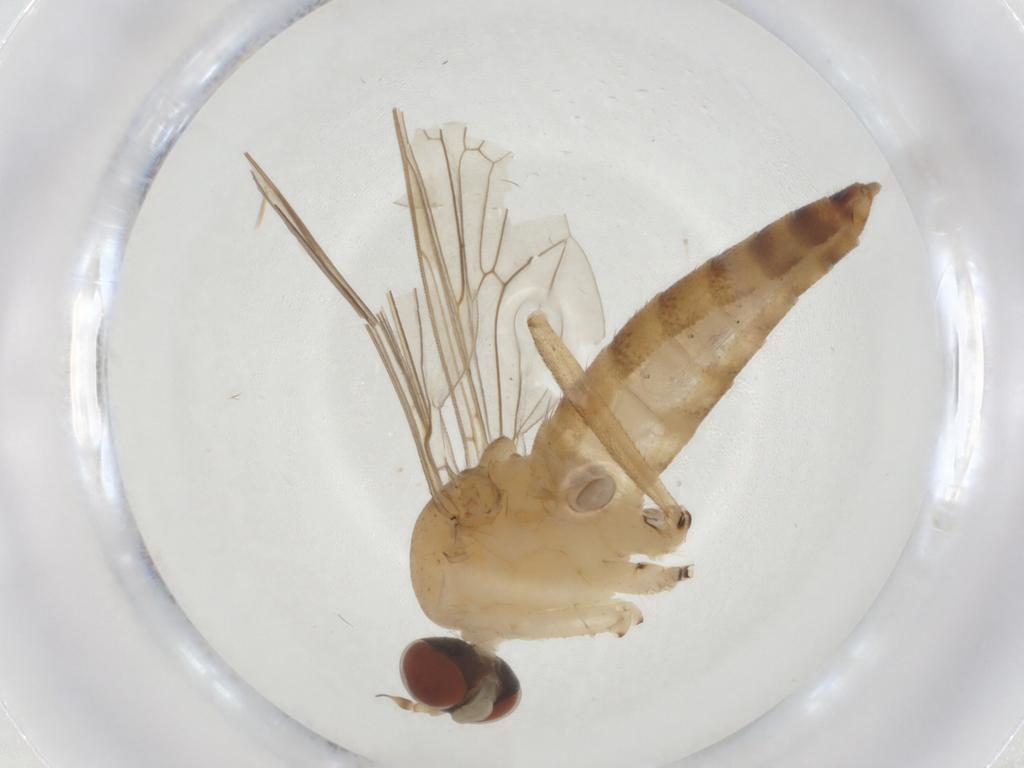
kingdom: Animalia
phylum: Arthropoda
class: Insecta
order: Diptera
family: Apsilocephalidae
